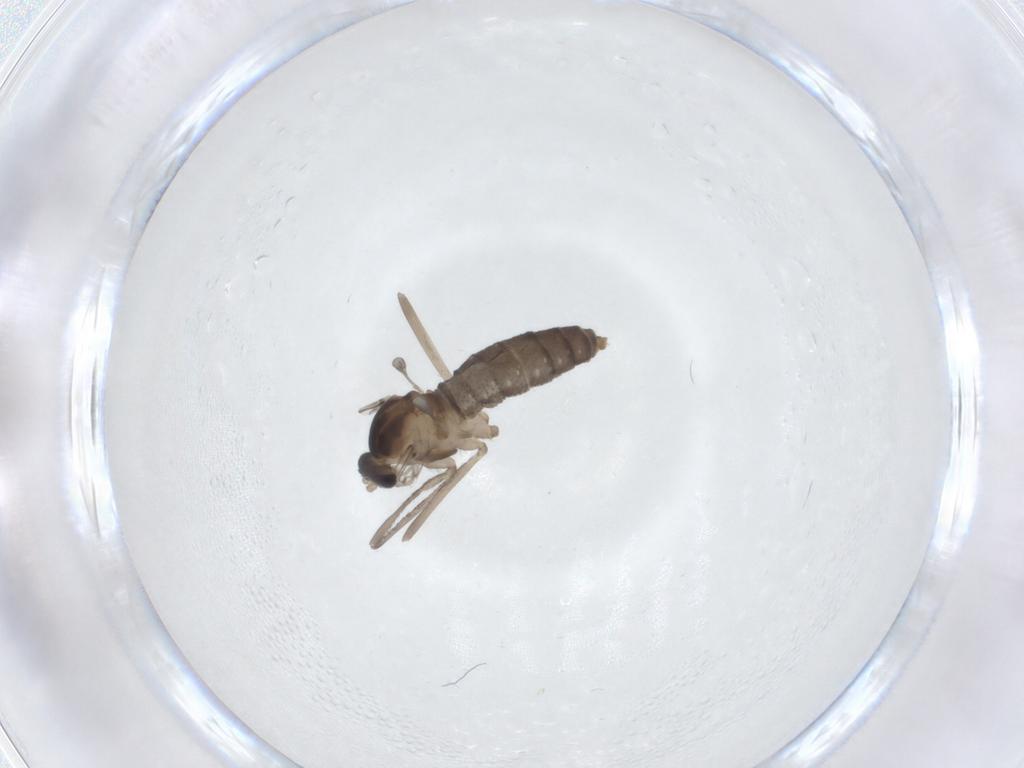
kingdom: Animalia
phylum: Arthropoda
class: Insecta
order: Diptera
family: Cecidomyiidae
